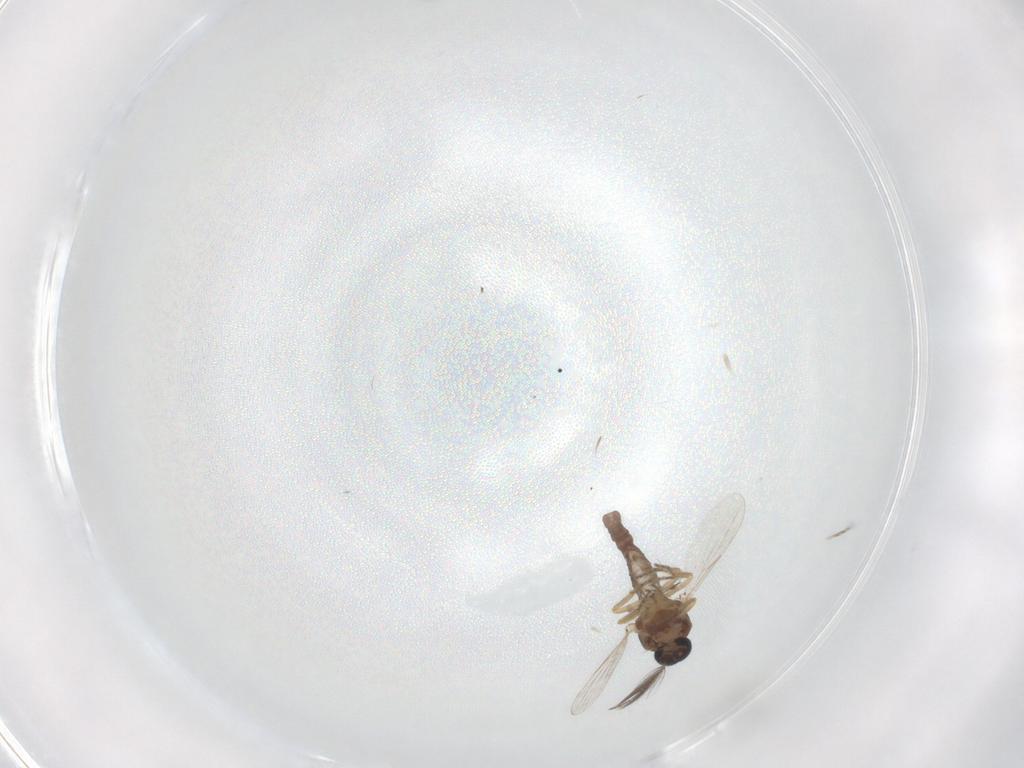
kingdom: Animalia
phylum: Arthropoda
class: Insecta
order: Diptera
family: Ceratopogonidae
